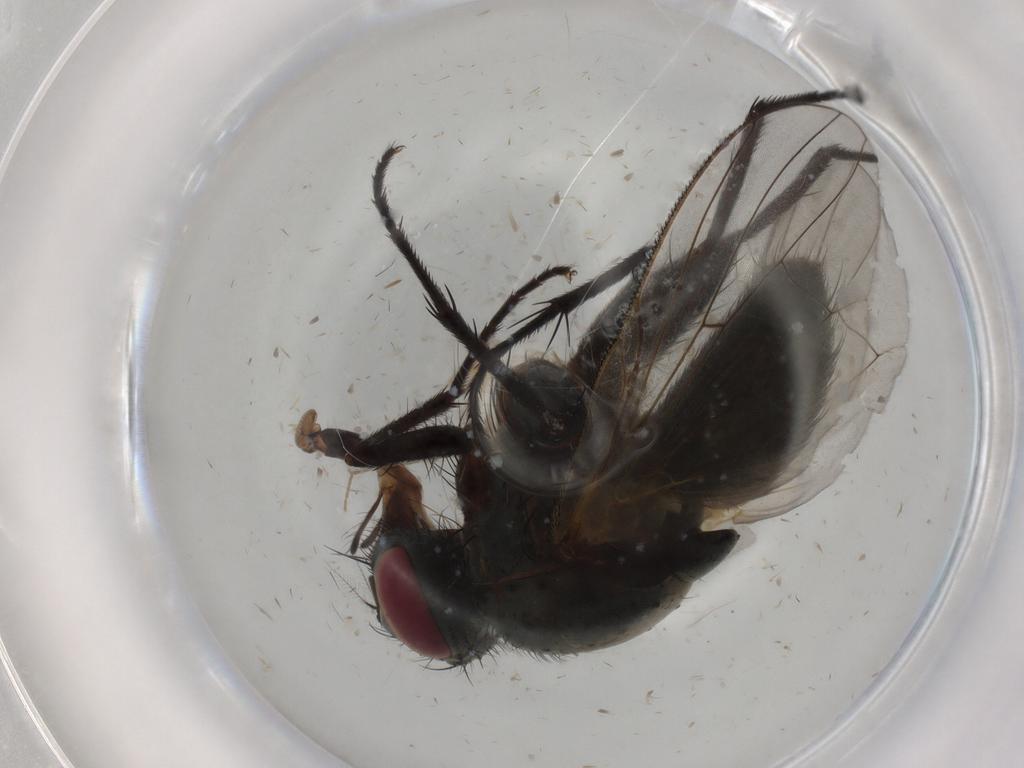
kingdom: Animalia
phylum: Arthropoda
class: Insecta
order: Diptera
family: Muscidae
